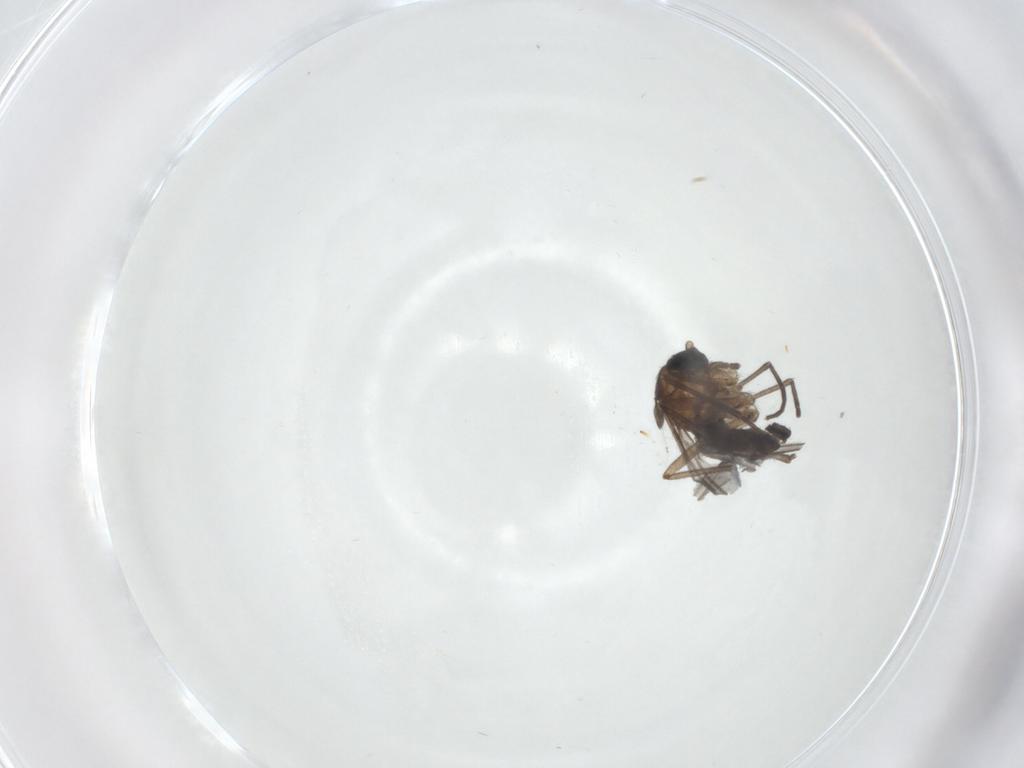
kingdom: Animalia
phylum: Arthropoda
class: Insecta
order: Diptera
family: Sciaridae
